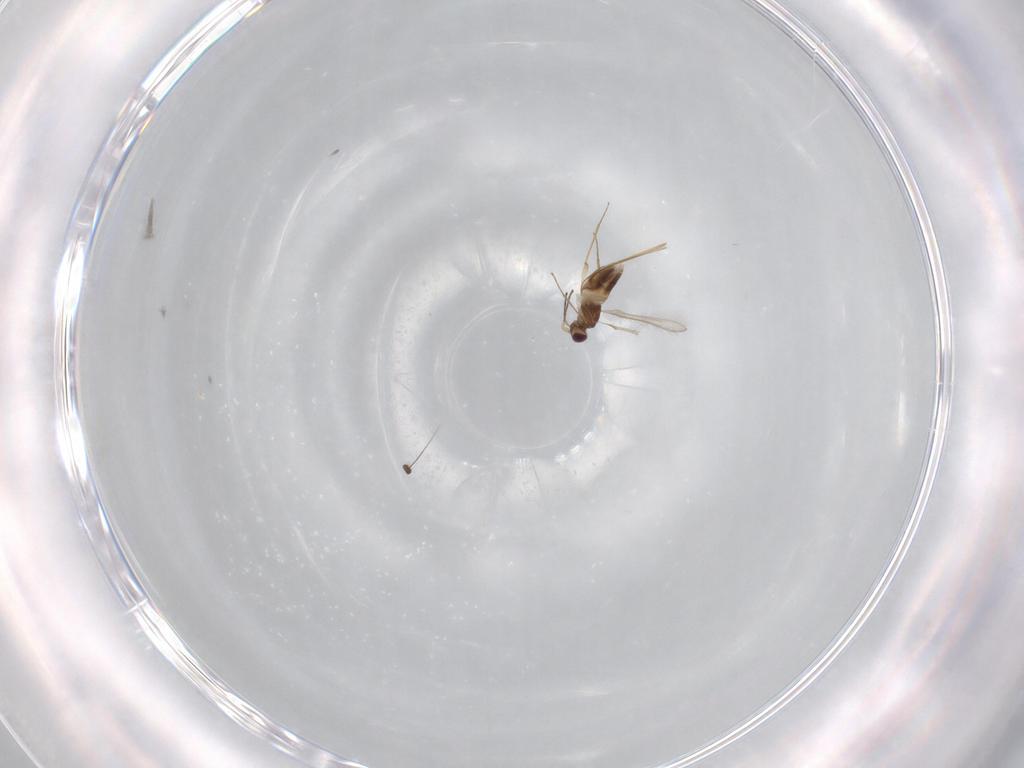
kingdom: Animalia
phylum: Arthropoda
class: Insecta
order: Hymenoptera
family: Mymaridae
